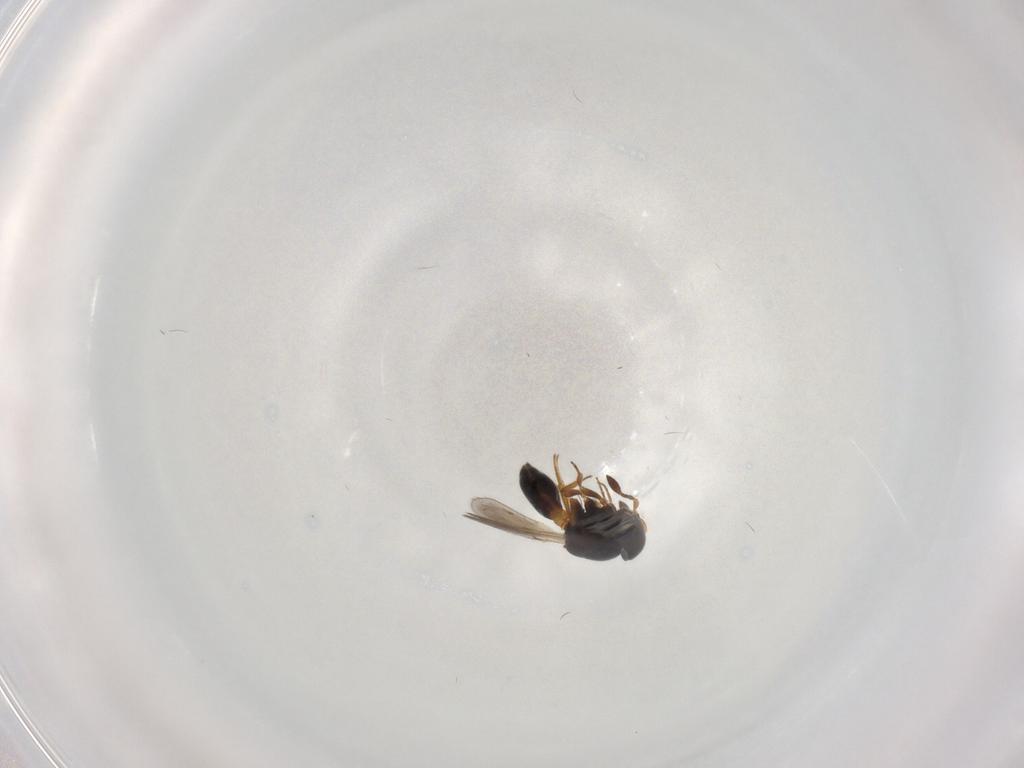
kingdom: Animalia
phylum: Arthropoda
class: Insecta
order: Hymenoptera
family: Scelionidae
